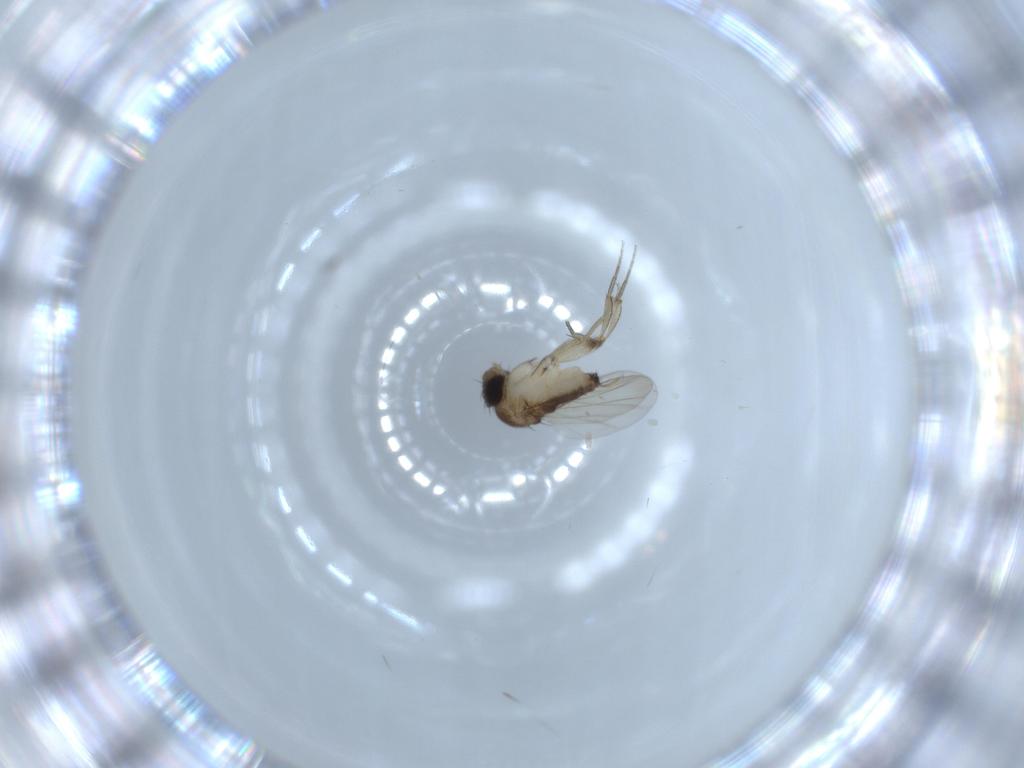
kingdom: Animalia
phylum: Arthropoda
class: Insecta
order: Diptera
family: Phoridae
